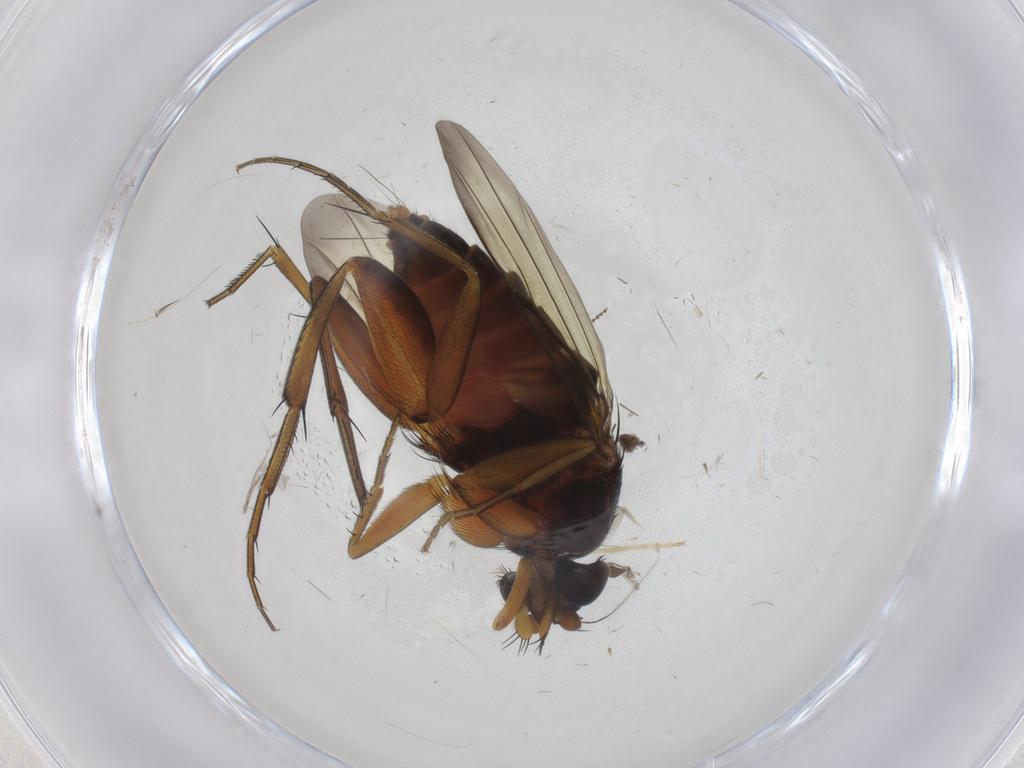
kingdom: Animalia
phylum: Arthropoda
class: Insecta
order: Diptera
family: Phoridae
